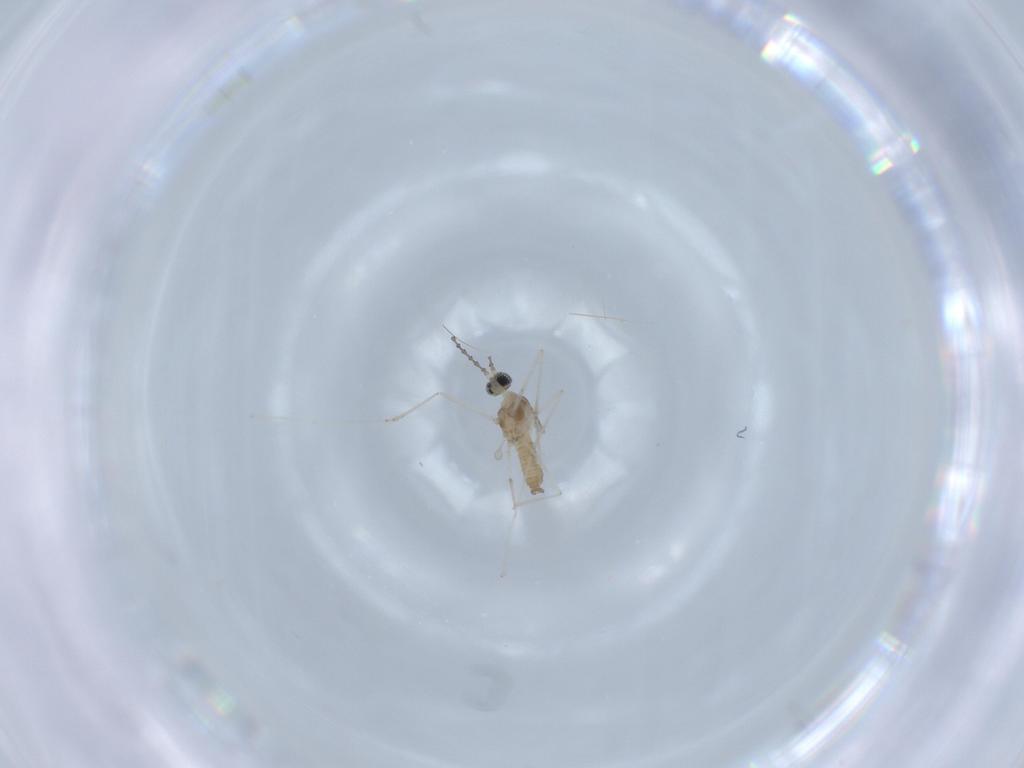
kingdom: Animalia
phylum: Arthropoda
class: Insecta
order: Diptera
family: Cecidomyiidae
